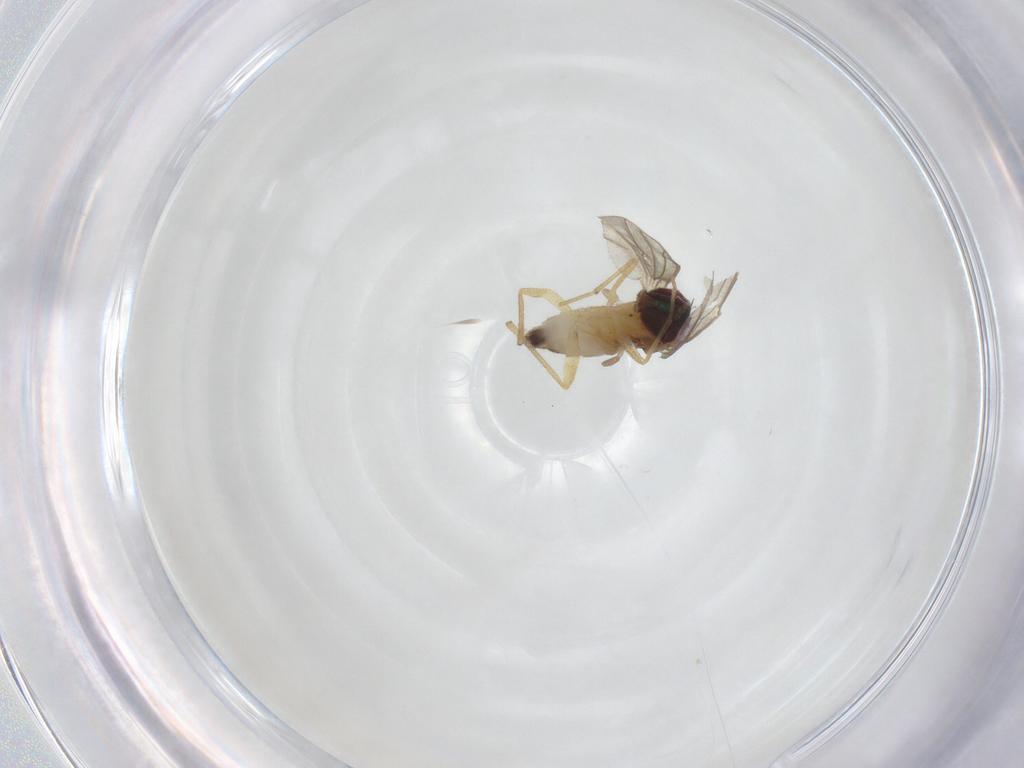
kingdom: Animalia
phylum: Arthropoda
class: Insecta
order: Diptera
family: Dolichopodidae
